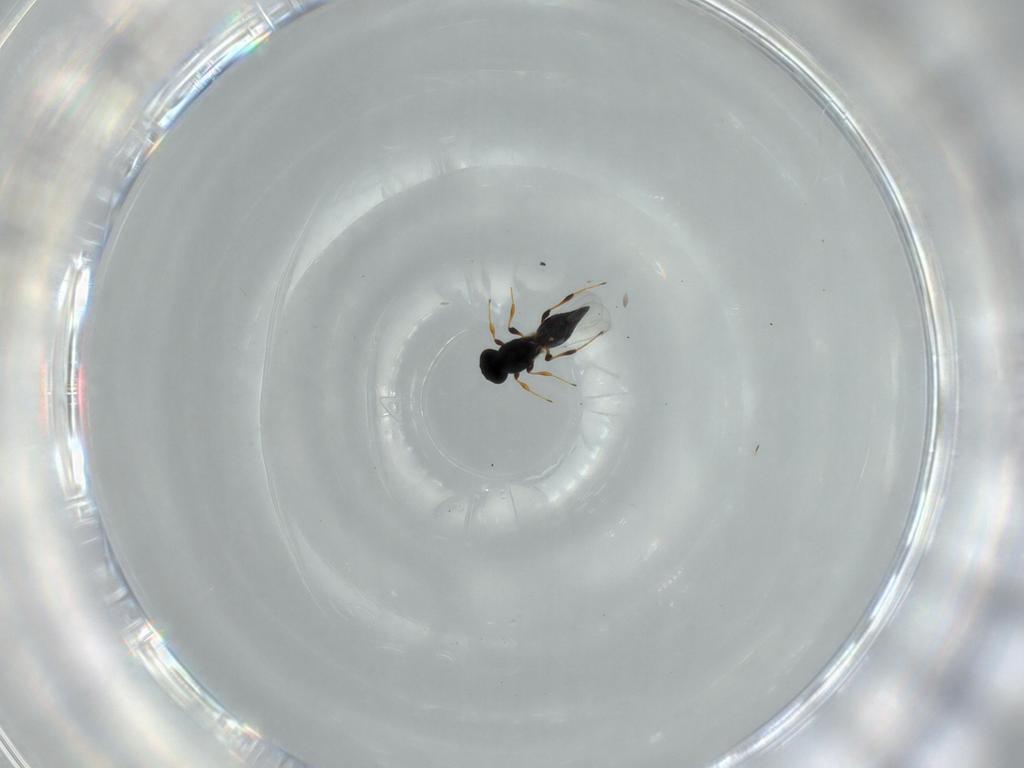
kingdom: Animalia
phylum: Arthropoda
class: Insecta
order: Hymenoptera
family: Platygastridae
